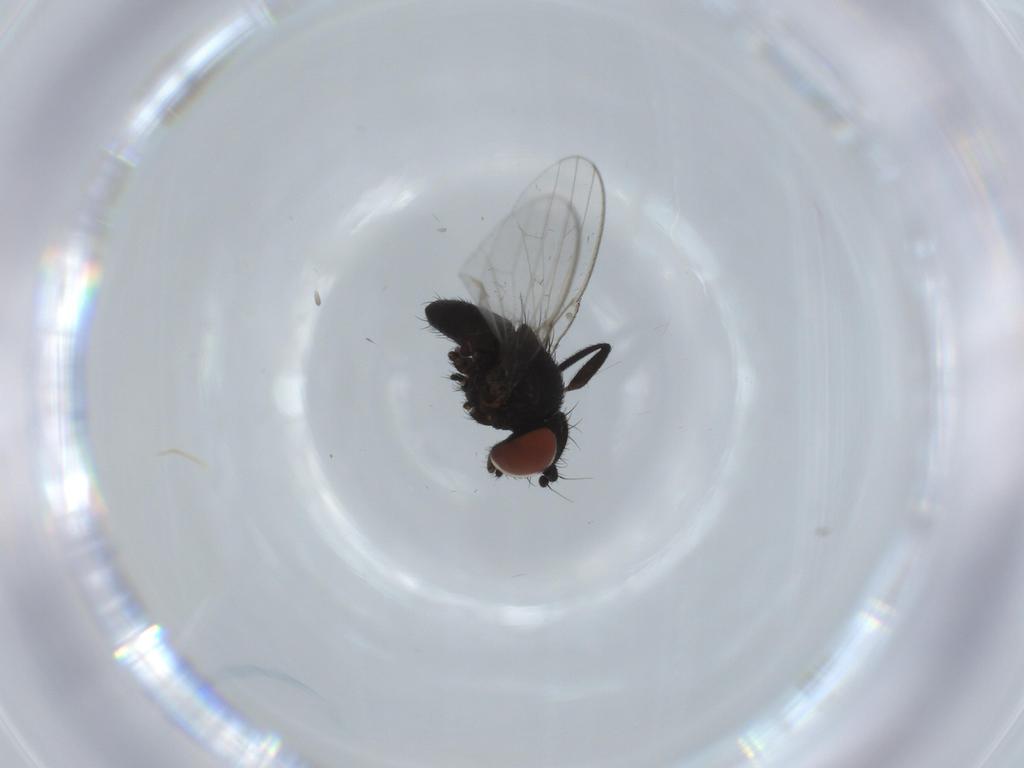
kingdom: Animalia
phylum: Arthropoda
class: Insecta
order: Diptera
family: Milichiidae
